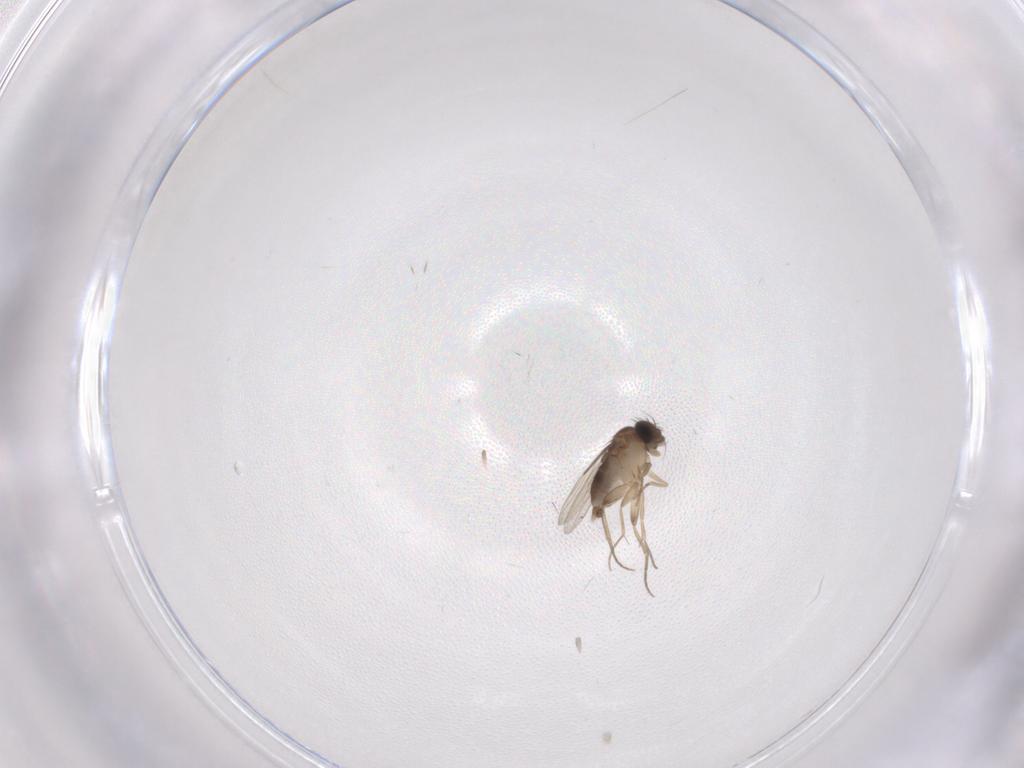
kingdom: Animalia
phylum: Arthropoda
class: Insecta
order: Diptera
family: Phoridae
